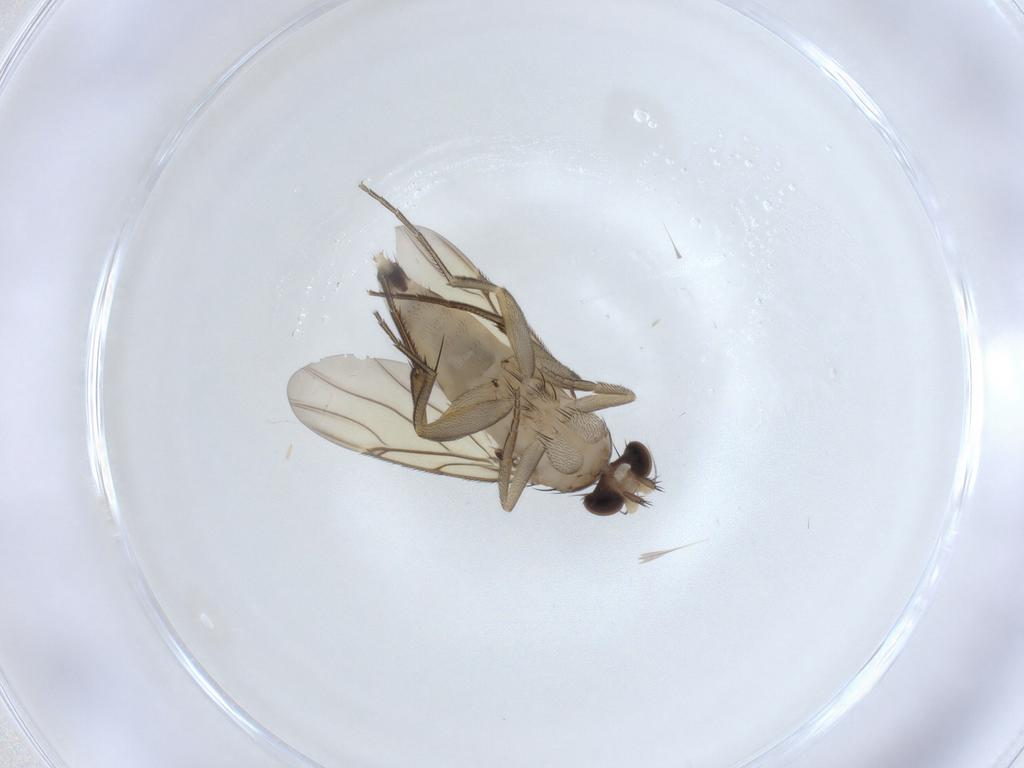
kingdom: Animalia
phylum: Arthropoda
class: Insecta
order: Diptera
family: Phoridae
